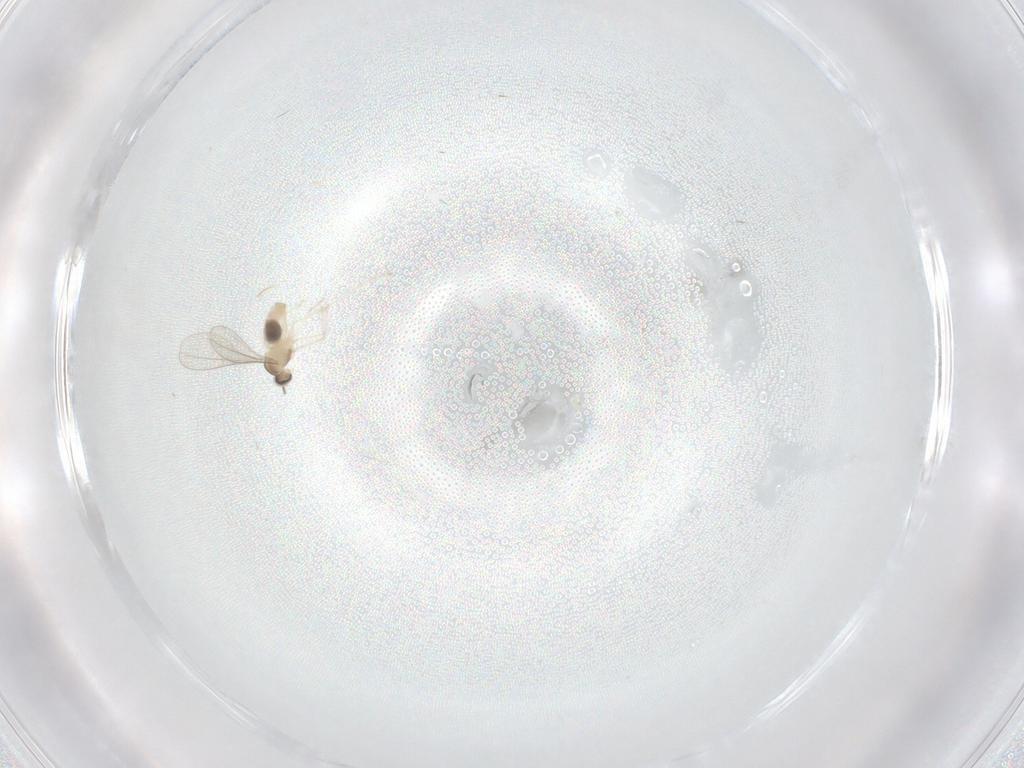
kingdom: Animalia
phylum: Arthropoda
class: Insecta
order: Diptera
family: Cecidomyiidae
